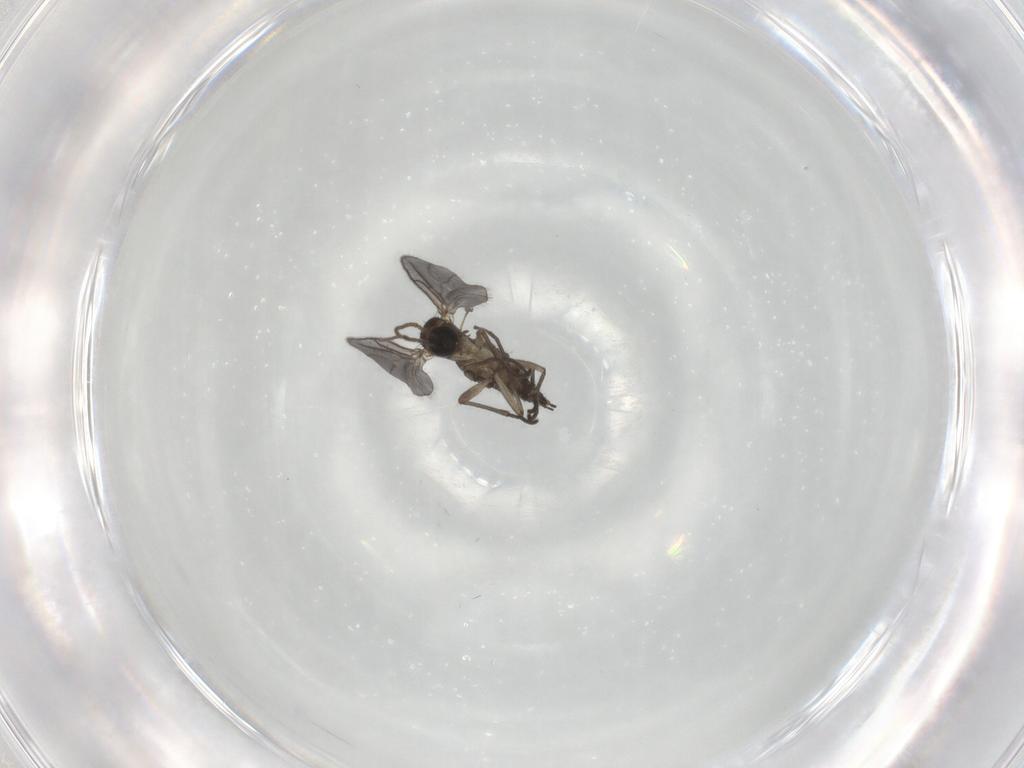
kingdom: Animalia
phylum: Arthropoda
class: Insecta
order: Diptera
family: Sciaridae
